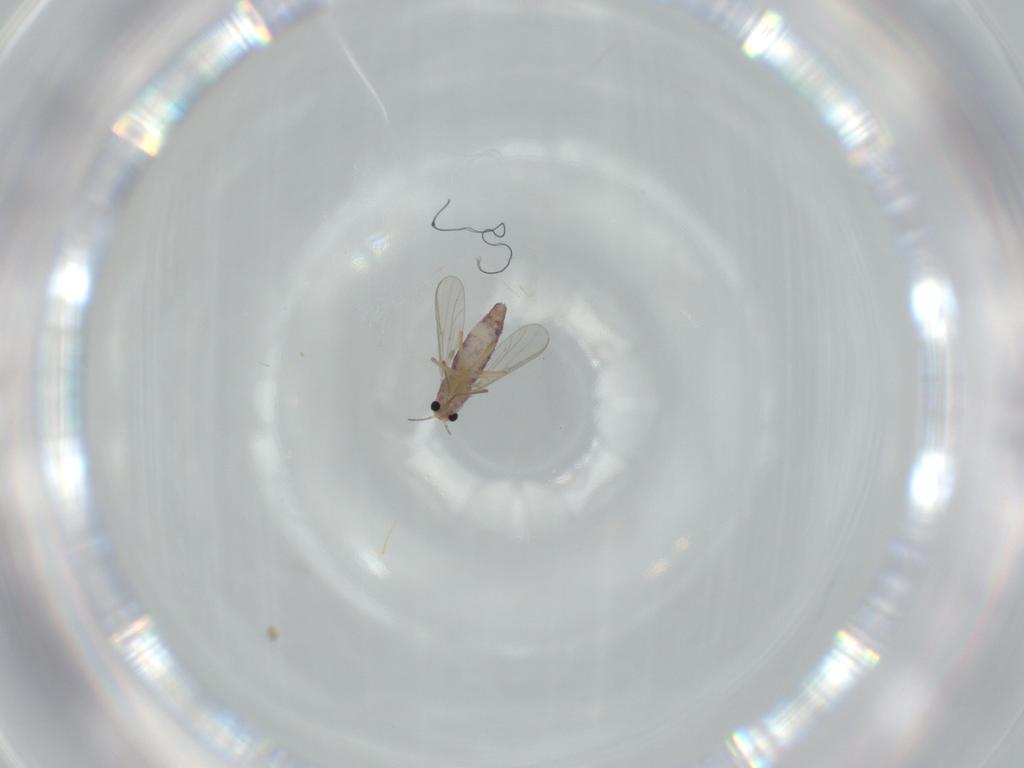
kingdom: Animalia
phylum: Arthropoda
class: Insecta
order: Diptera
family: Chironomidae
